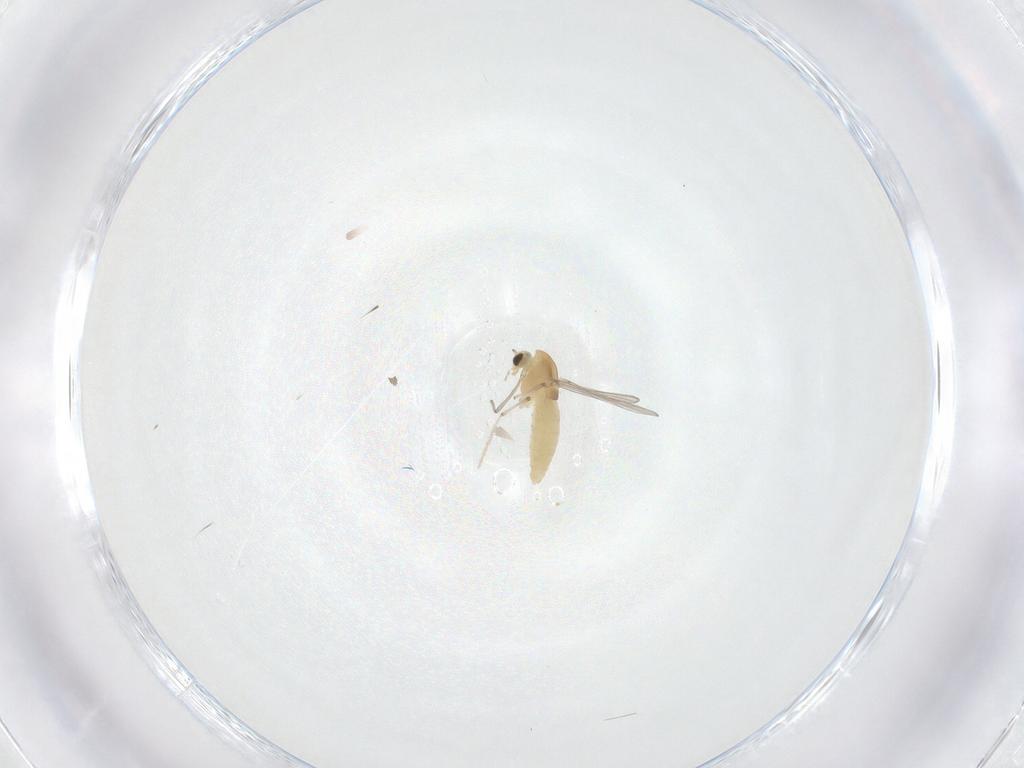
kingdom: Animalia
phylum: Arthropoda
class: Insecta
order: Diptera
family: Chironomidae
